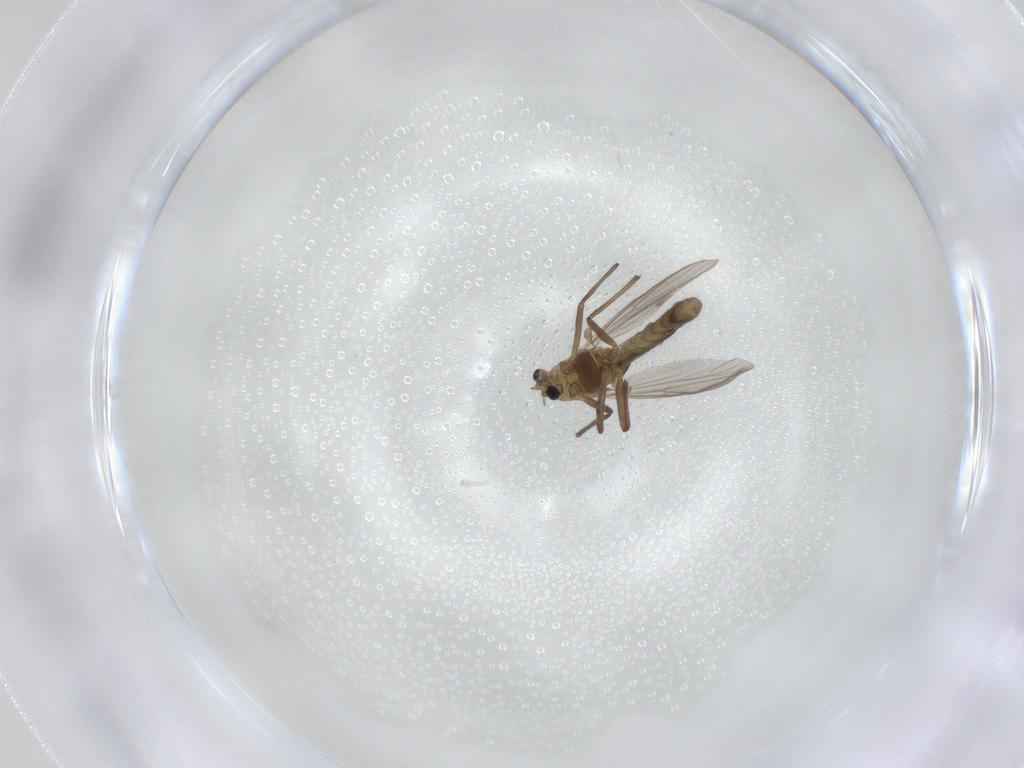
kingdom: Animalia
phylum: Arthropoda
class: Insecta
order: Diptera
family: Chironomidae
